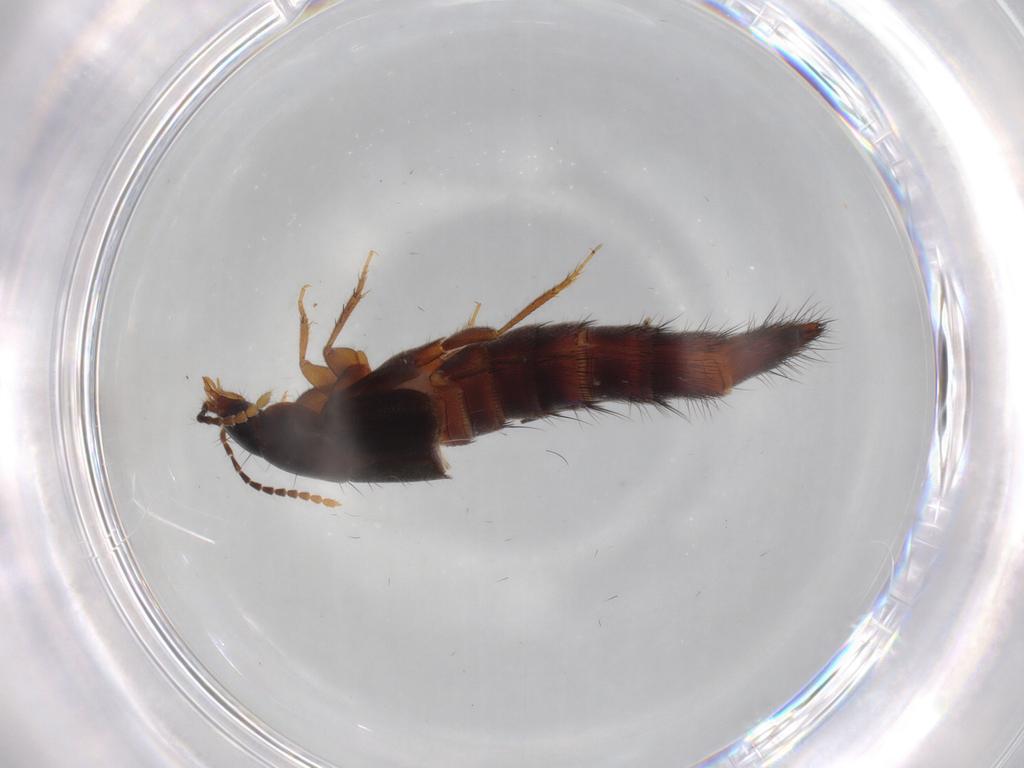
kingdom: Animalia
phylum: Arthropoda
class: Insecta
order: Coleoptera
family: Staphylinidae
